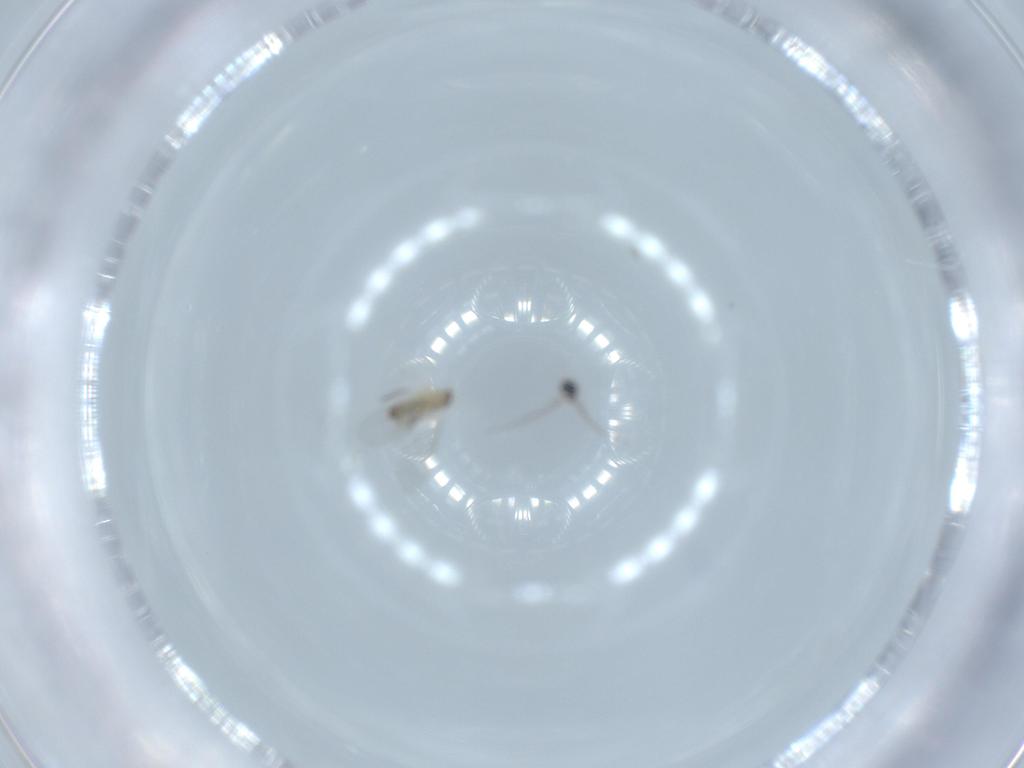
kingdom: Animalia
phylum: Arthropoda
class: Insecta
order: Diptera
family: Cecidomyiidae
